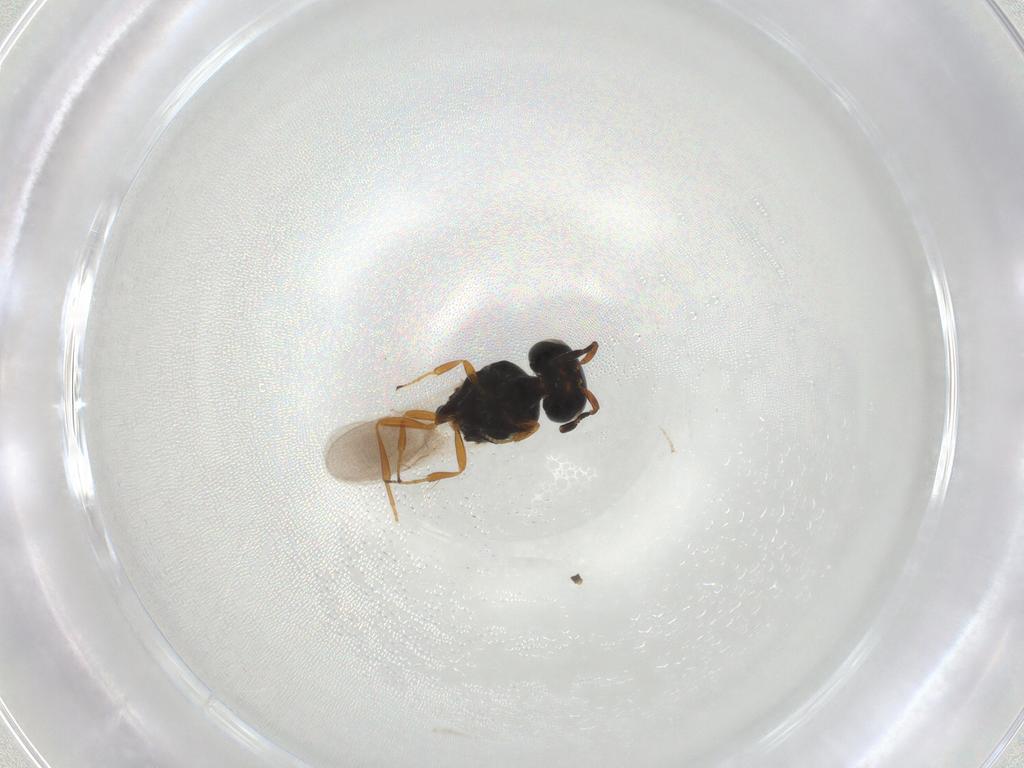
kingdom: Animalia
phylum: Arthropoda
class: Insecta
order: Hymenoptera
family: Scelionidae
